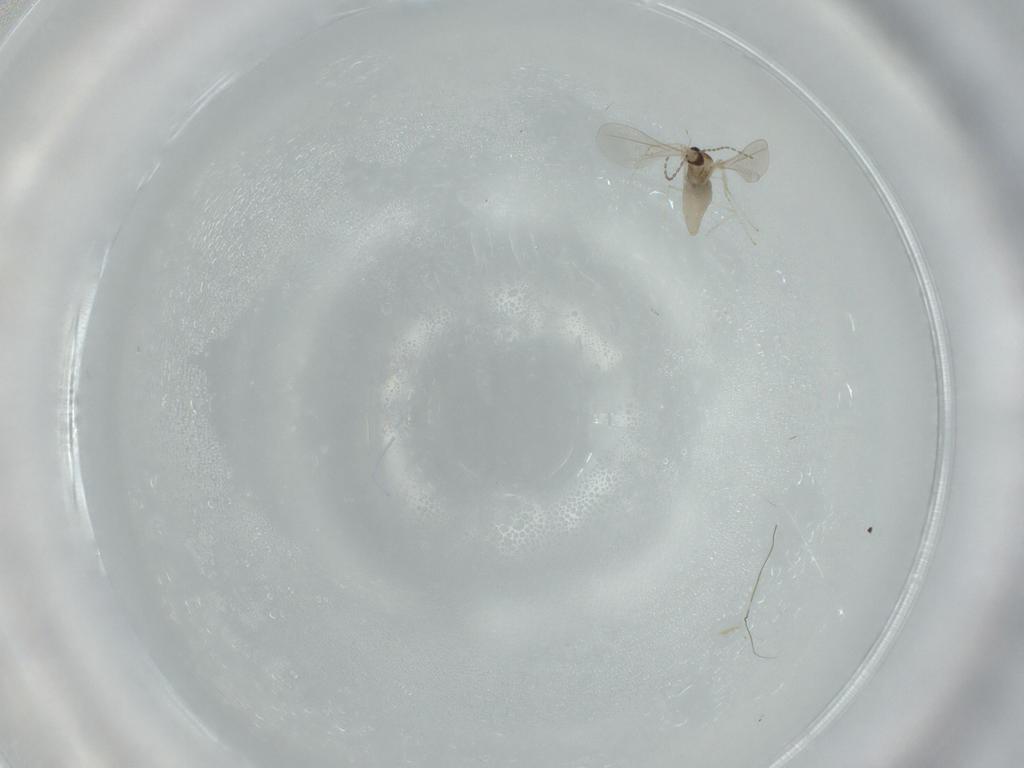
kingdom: Animalia
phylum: Arthropoda
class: Insecta
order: Diptera
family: Cecidomyiidae
